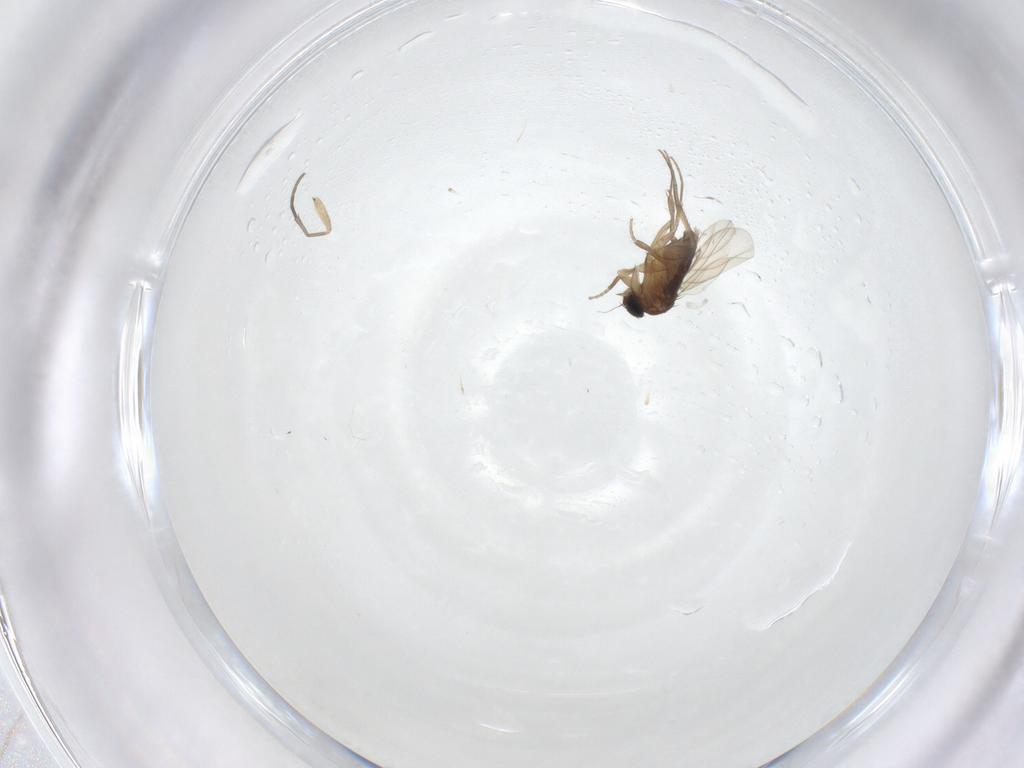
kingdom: Animalia
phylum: Arthropoda
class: Insecta
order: Diptera
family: Phoridae
